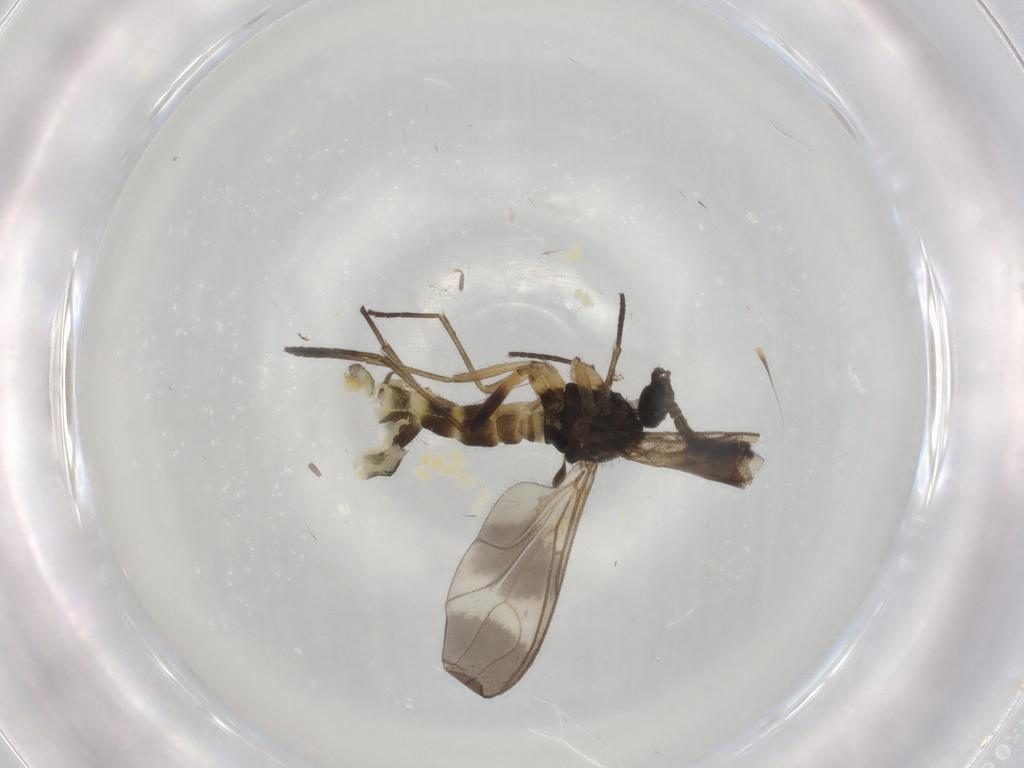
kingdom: Animalia
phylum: Arthropoda
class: Insecta
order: Diptera
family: Sciaridae
